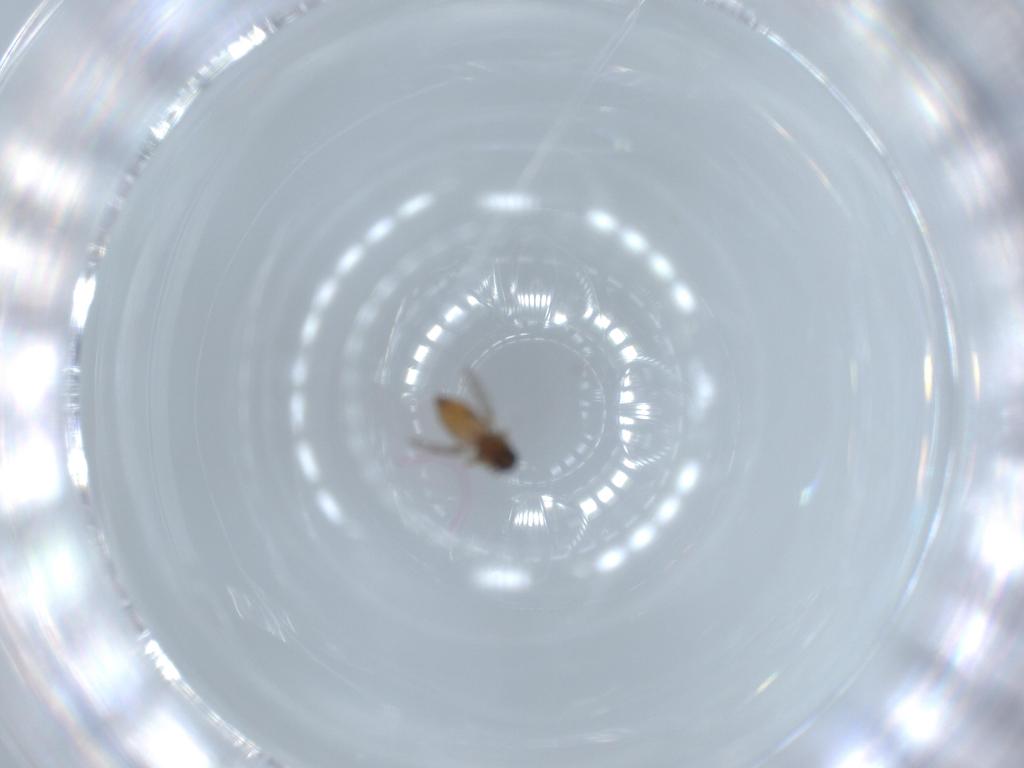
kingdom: Animalia
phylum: Arthropoda
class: Insecta
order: Diptera
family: Ceratopogonidae
